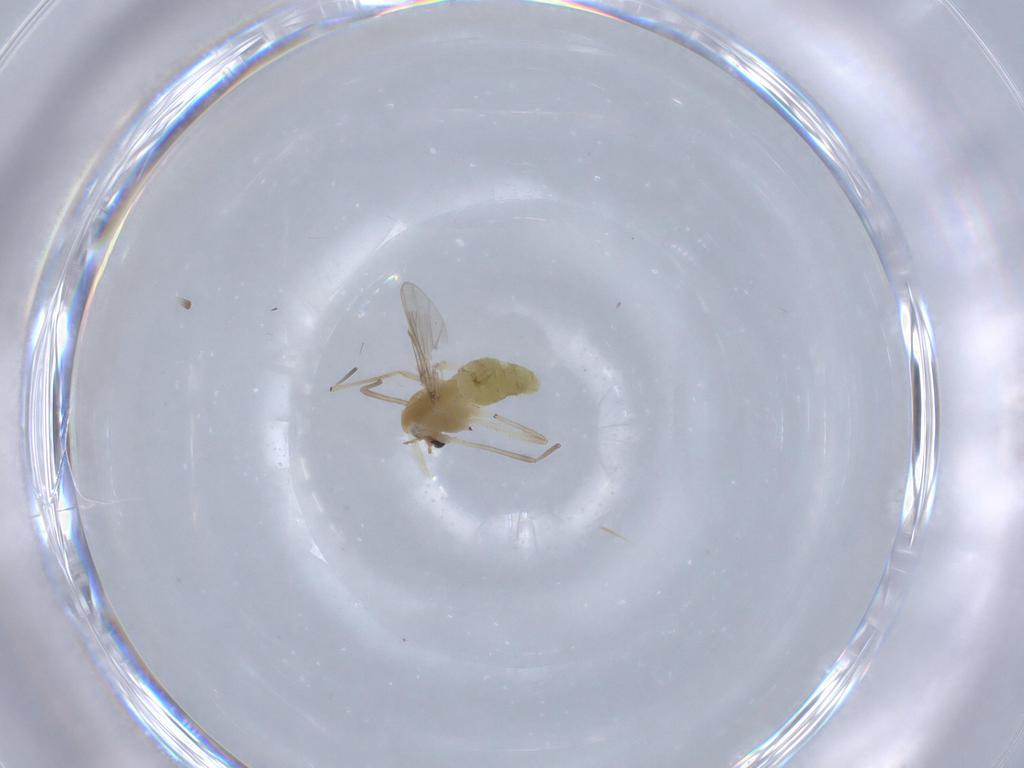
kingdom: Animalia
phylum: Arthropoda
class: Insecta
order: Diptera
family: Chironomidae
